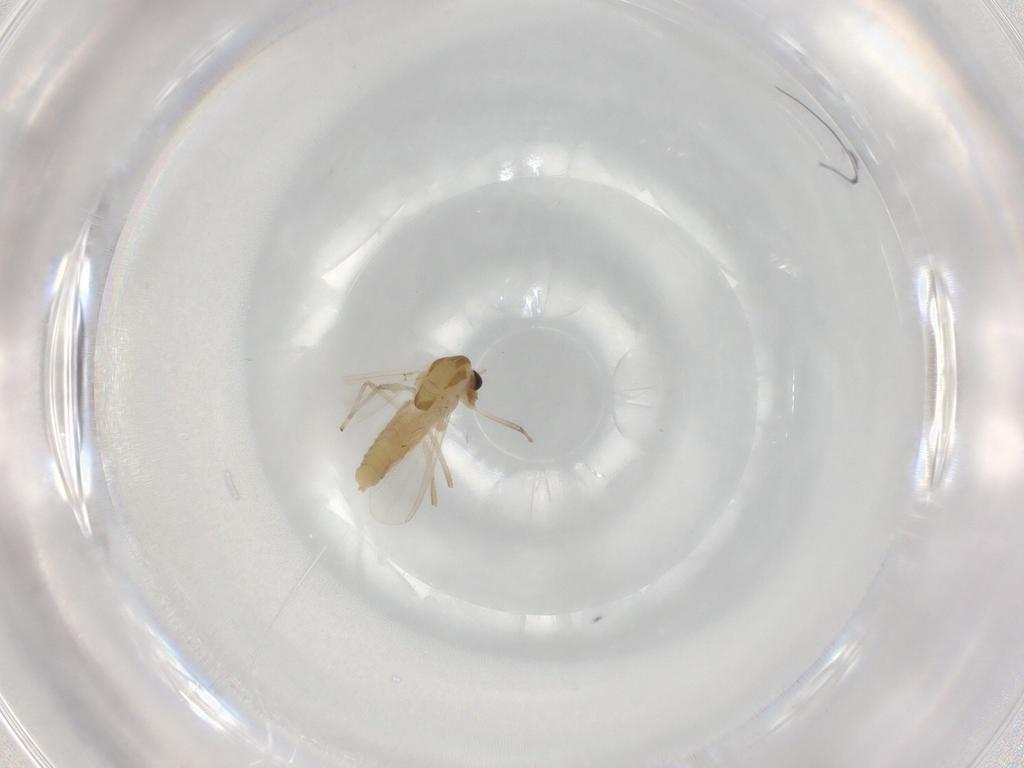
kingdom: Animalia
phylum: Arthropoda
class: Insecta
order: Diptera
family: Chironomidae
